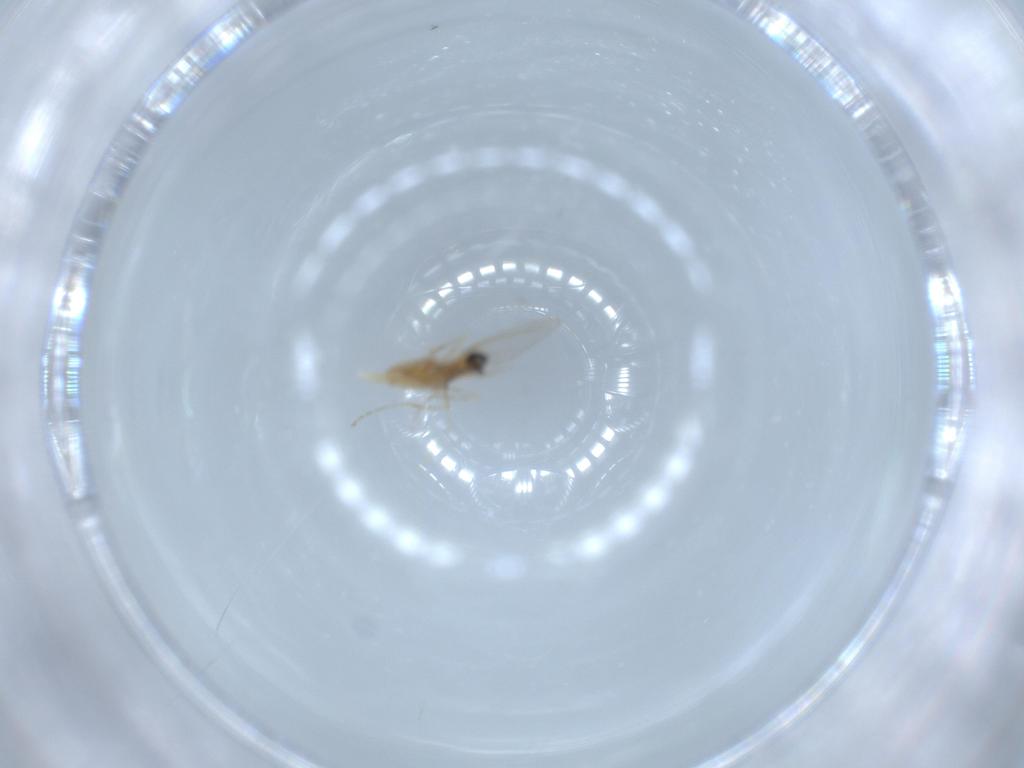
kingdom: Animalia
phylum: Arthropoda
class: Insecta
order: Diptera
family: Cecidomyiidae
